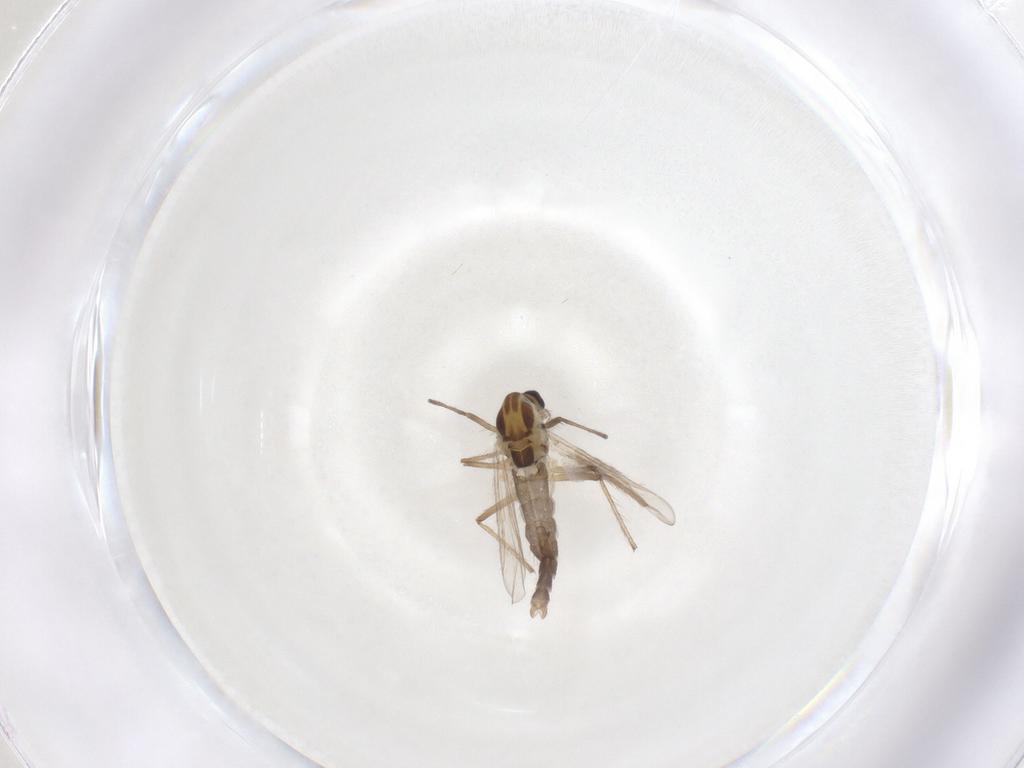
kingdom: Animalia
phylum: Arthropoda
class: Insecta
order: Diptera
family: Chironomidae
